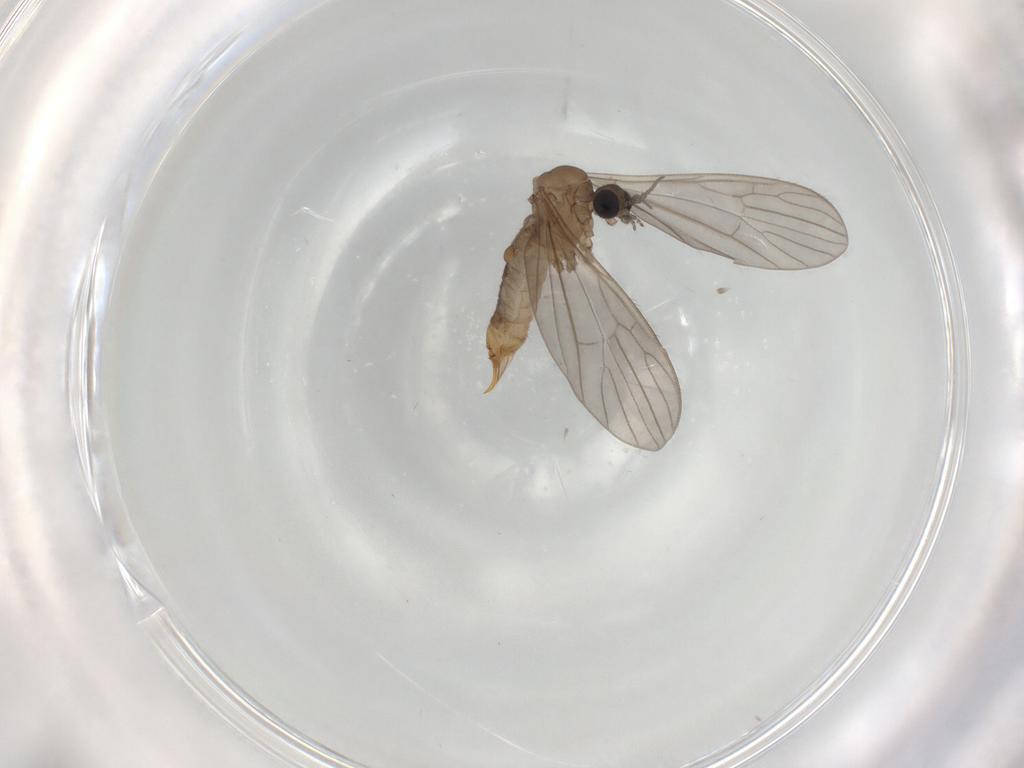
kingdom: Animalia
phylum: Arthropoda
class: Insecta
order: Diptera
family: Limoniidae
